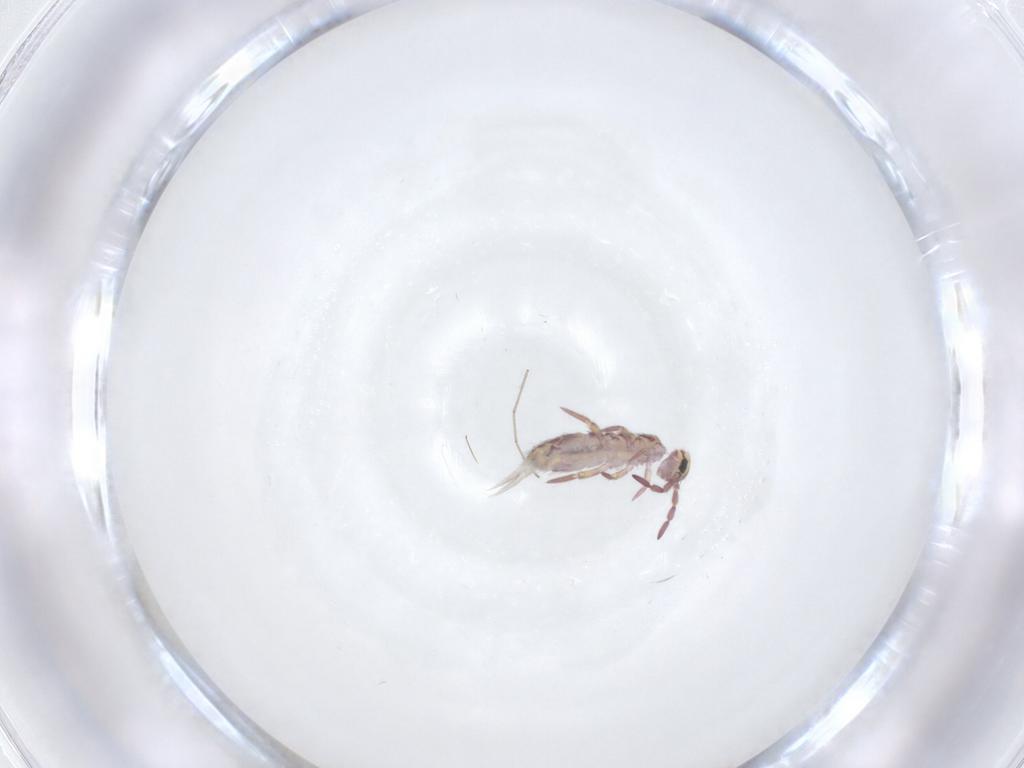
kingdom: Animalia
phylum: Arthropoda
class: Collembola
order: Entomobryomorpha
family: Isotomidae
